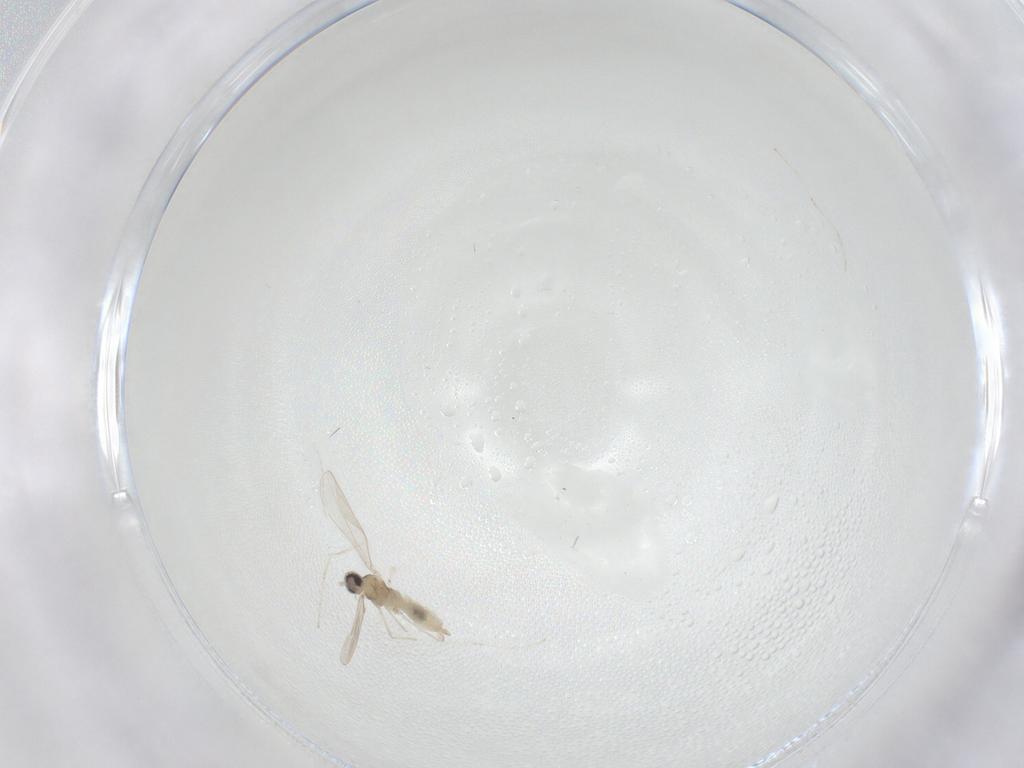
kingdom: Animalia
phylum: Arthropoda
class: Insecta
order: Diptera
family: Cecidomyiidae
